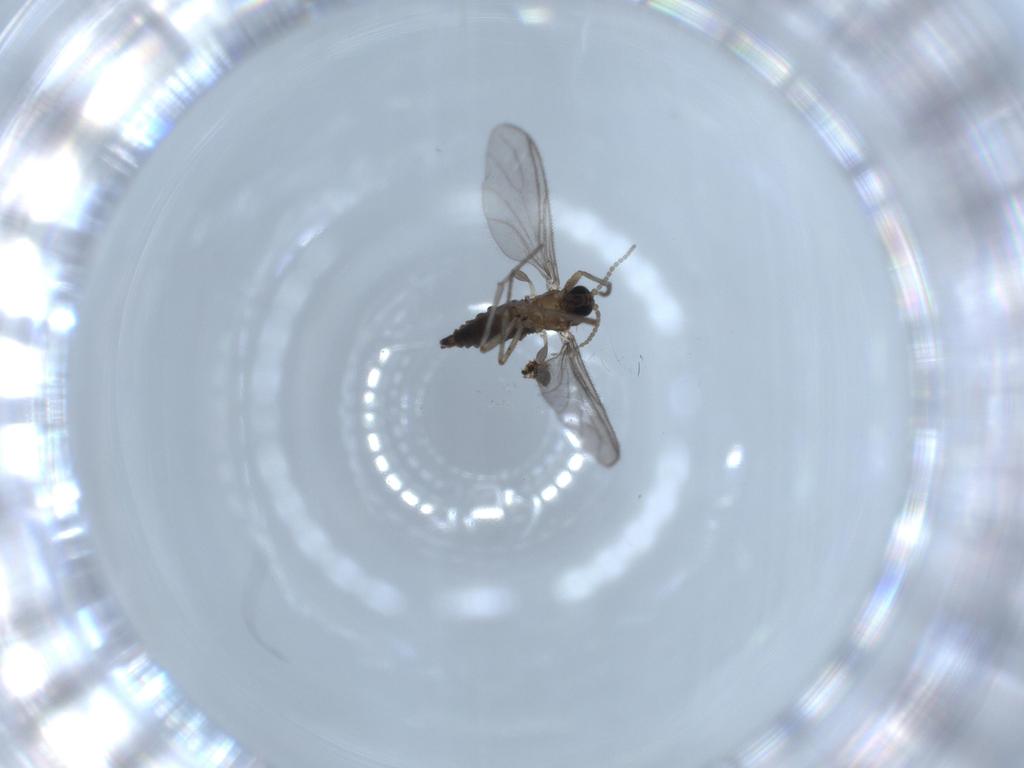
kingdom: Animalia
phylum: Arthropoda
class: Insecta
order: Diptera
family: Sciaridae
